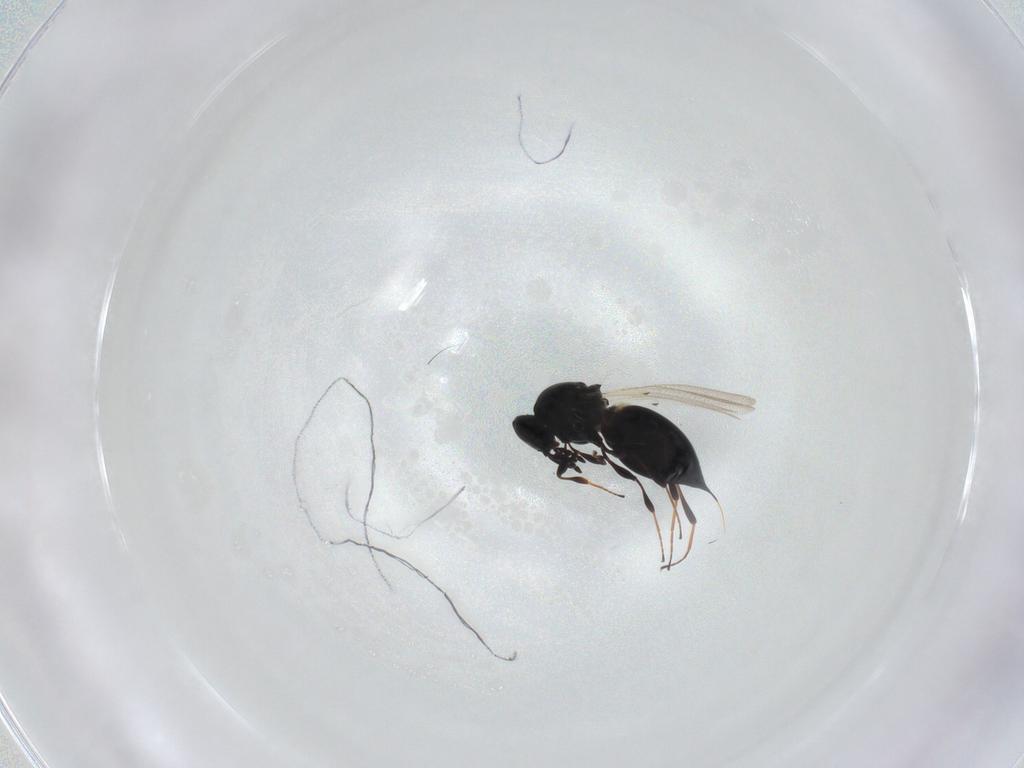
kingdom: Animalia
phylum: Arthropoda
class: Insecta
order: Hymenoptera
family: Platygastridae
